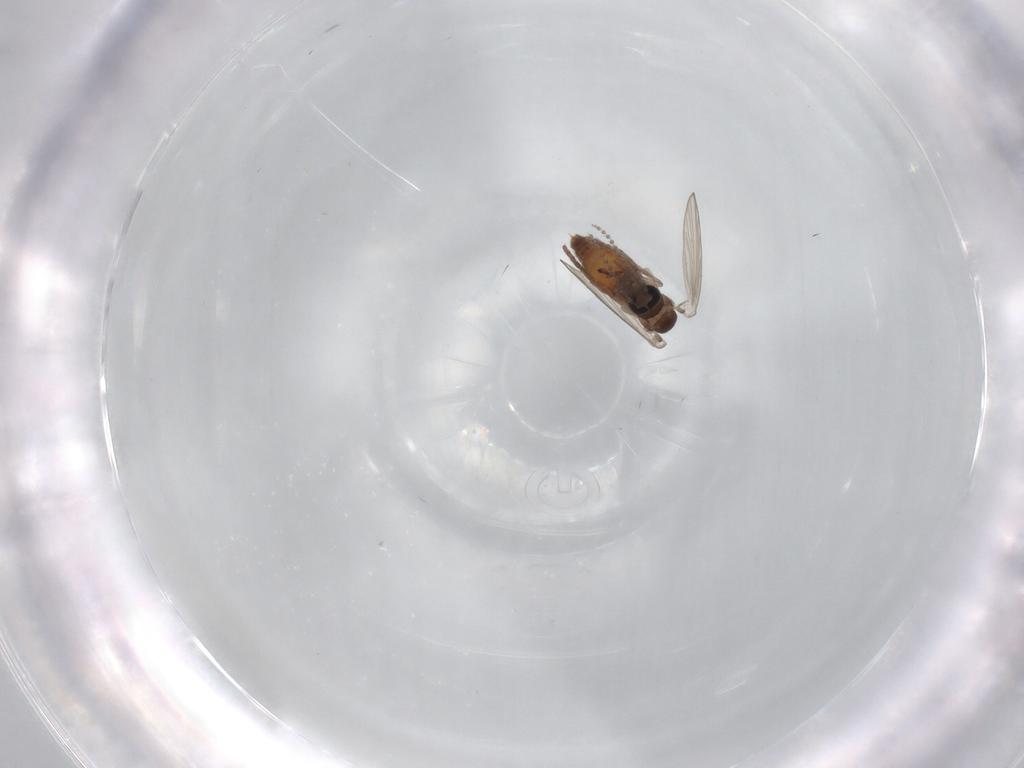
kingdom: Animalia
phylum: Arthropoda
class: Insecta
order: Diptera
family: Psychodidae
